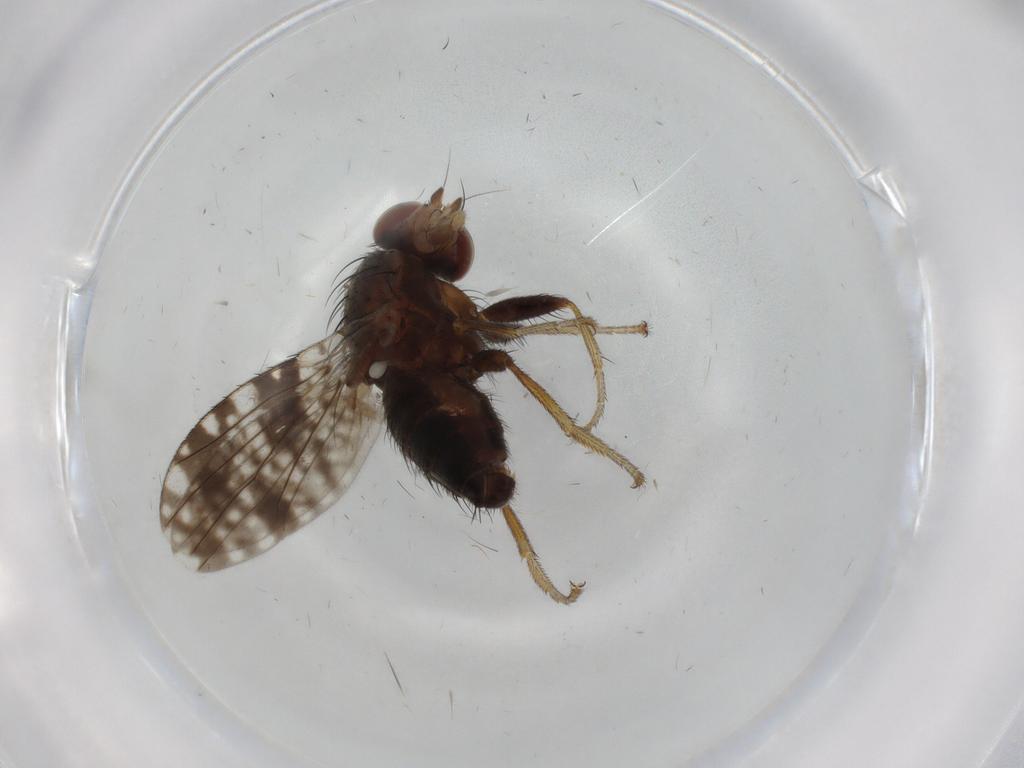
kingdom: Animalia
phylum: Arthropoda
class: Insecta
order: Diptera
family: Tephritidae
